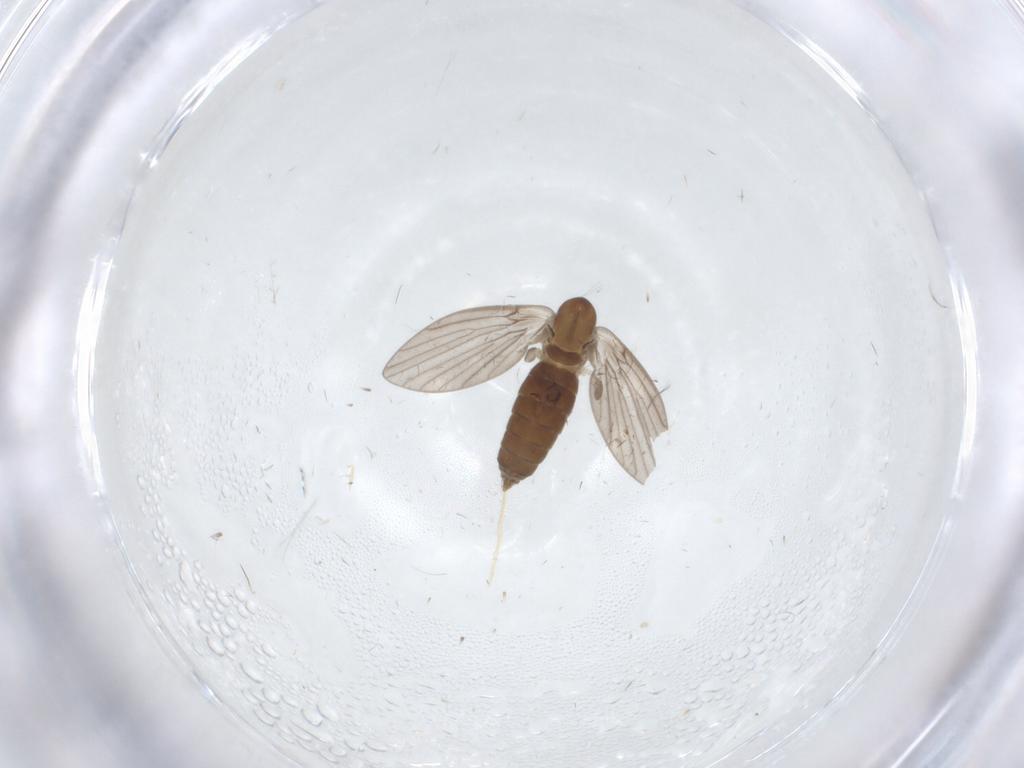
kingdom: Animalia
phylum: Arthropoda
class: Insecta
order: Diptera
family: Sphaeroceridae
